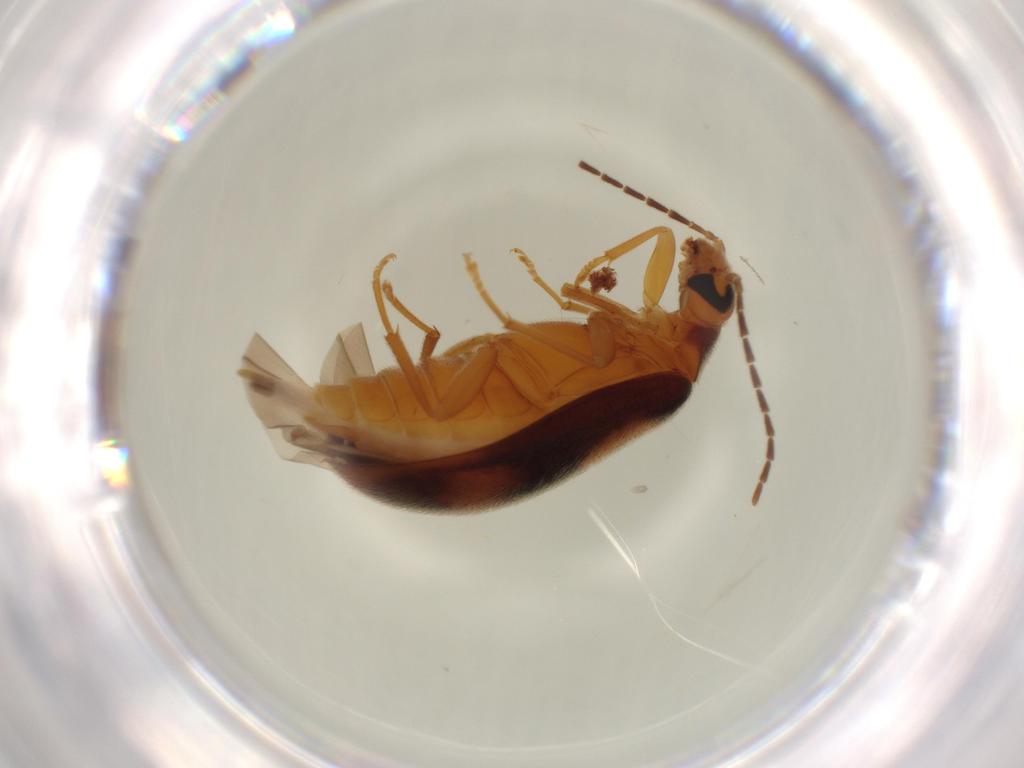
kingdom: Animalia
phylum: Arthropoda
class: Insecta
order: Coleoptera
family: Scraptiidae
